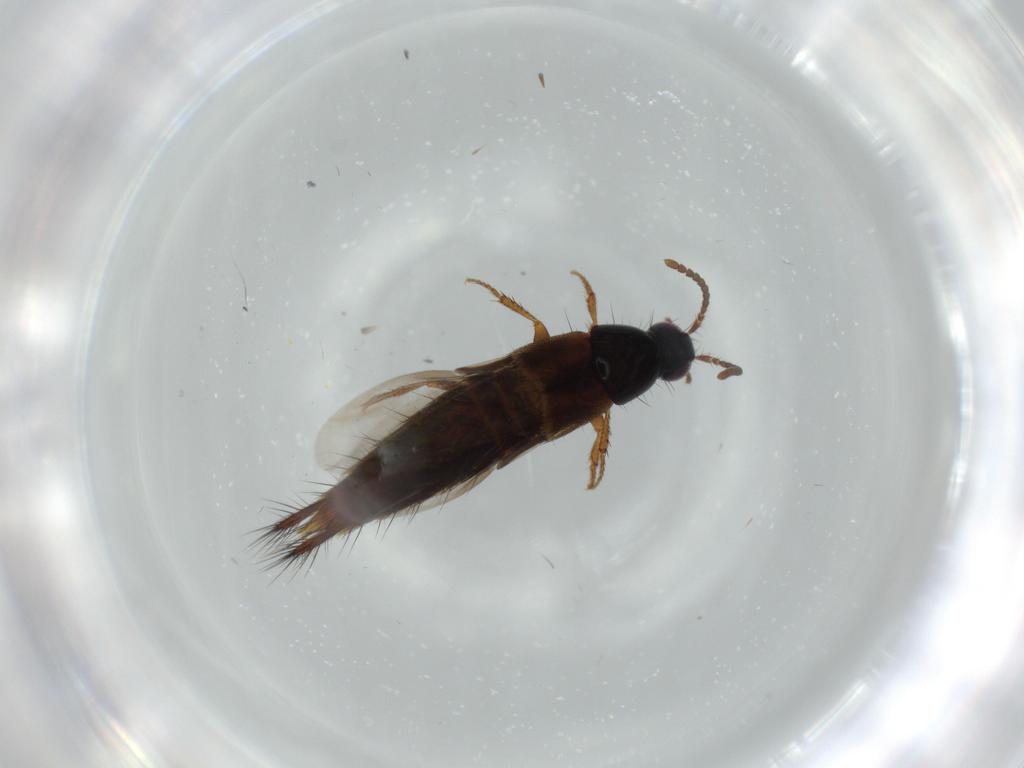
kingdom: Animalia
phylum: Arthropoda
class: Insecta
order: Coleoptera
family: Staphylinidae
